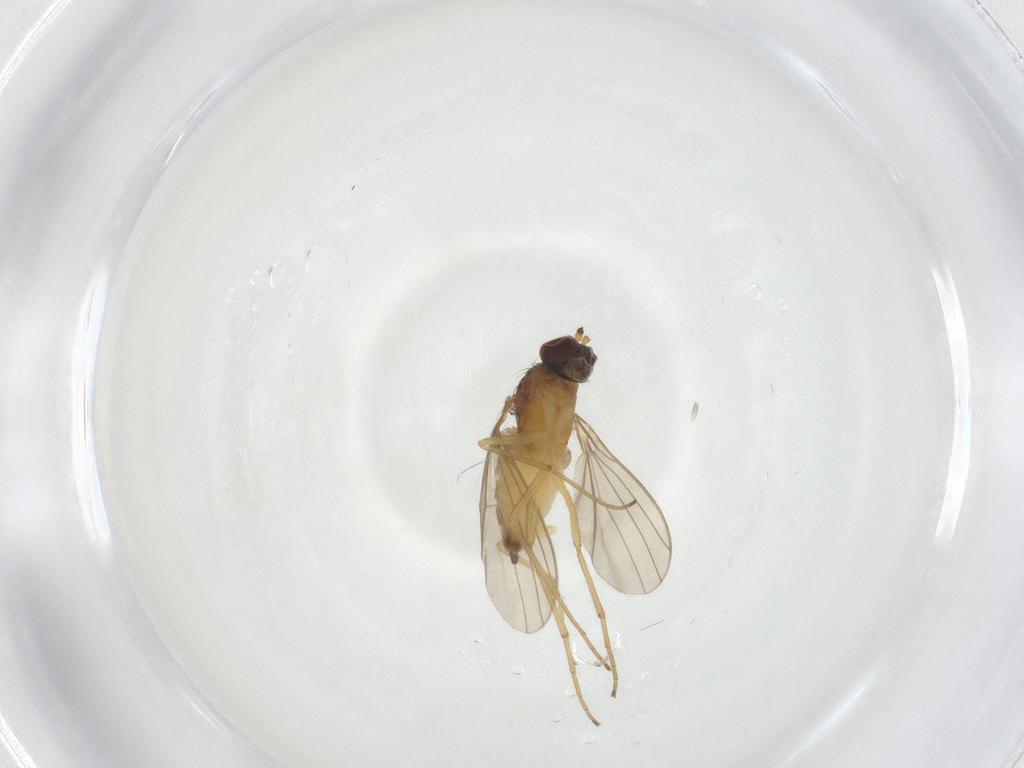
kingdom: Animalia
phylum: Arthropoda
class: Insecta
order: Diptera
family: Dolichopodidae
